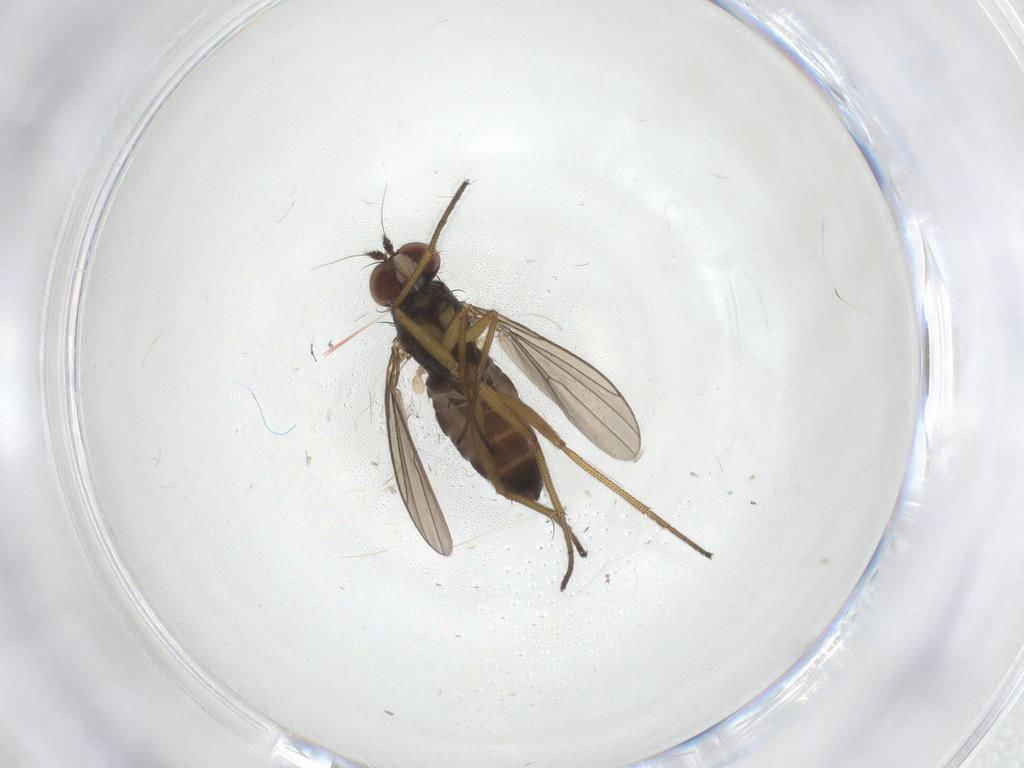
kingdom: Animalia
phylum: Arthropoda
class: Insecta
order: Diptera
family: Dolichopodidae
